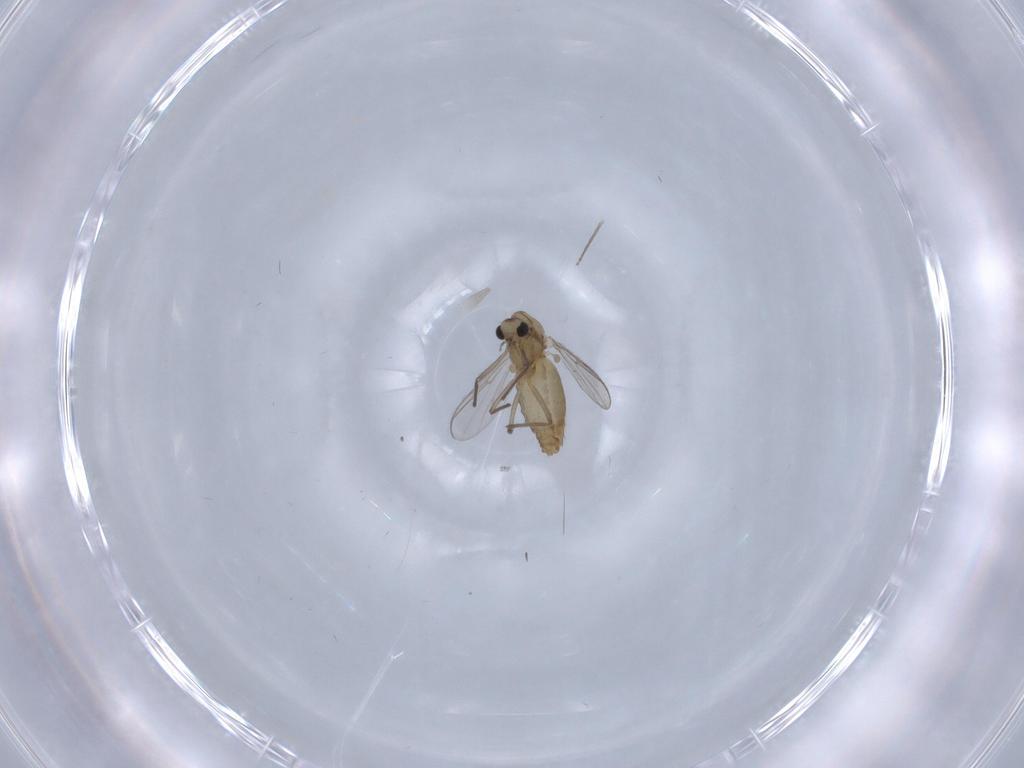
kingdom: Animalia
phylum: Arthropoda
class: Insecta
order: Diptera
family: Chironomidae
